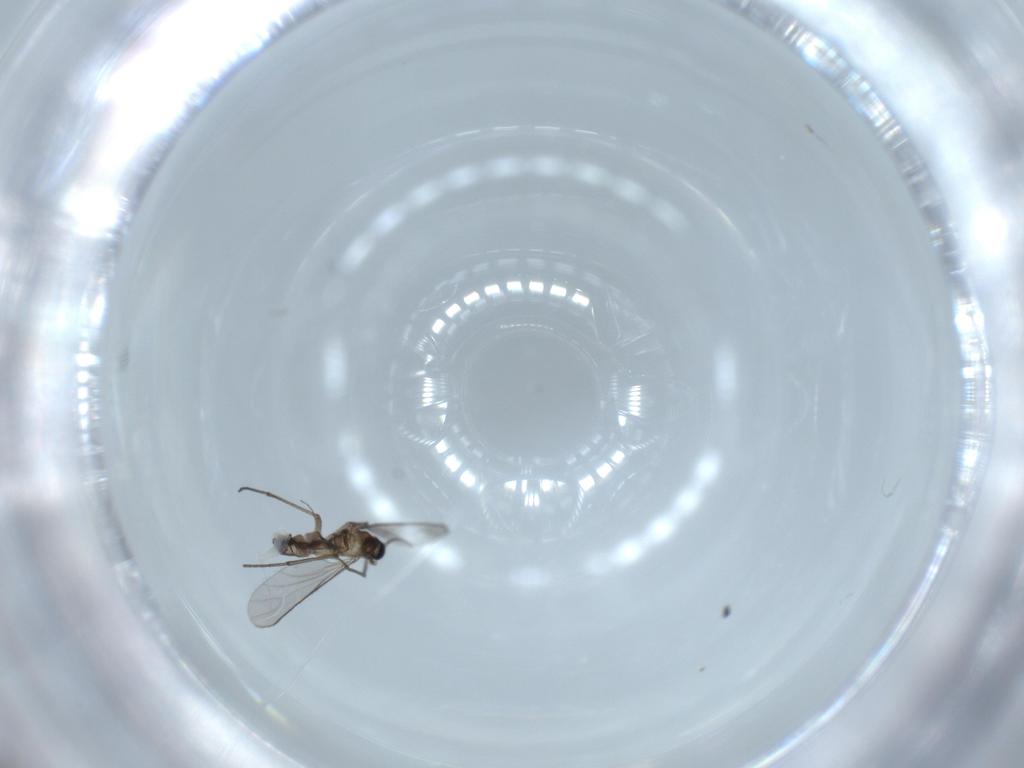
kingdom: Animalia
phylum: Arthropoda
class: Insecta
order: Diptera
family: Sciaridae
